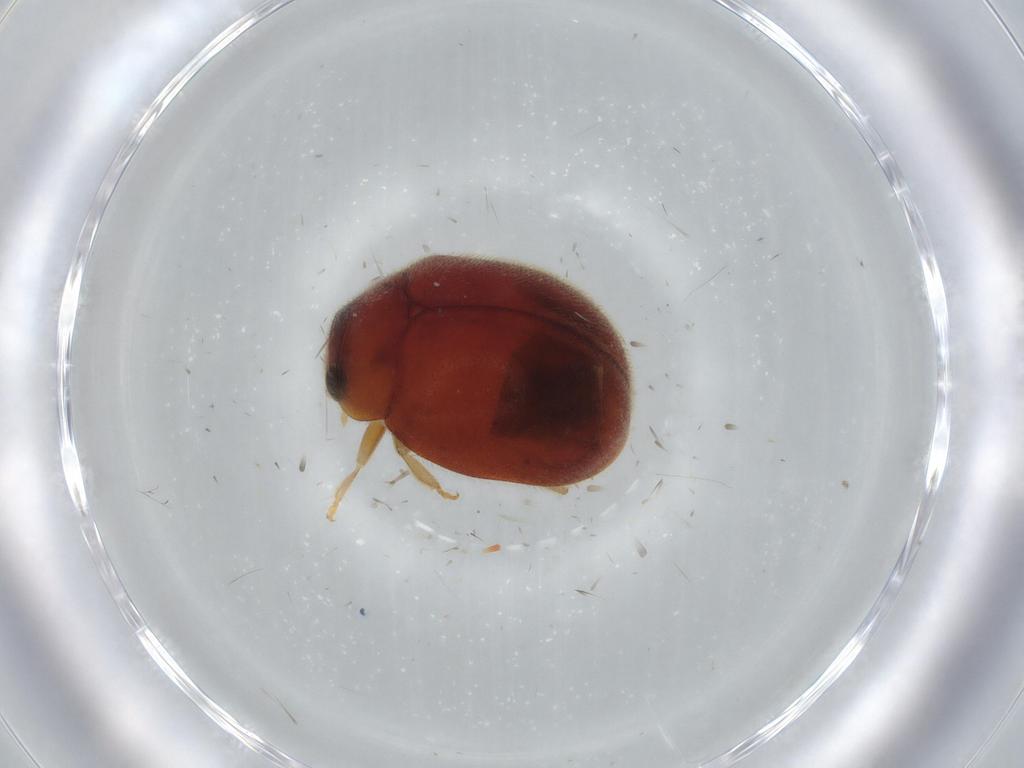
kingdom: Animalia
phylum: Arthropoda
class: Insecta
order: Coleoptera
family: Coccinellidae
